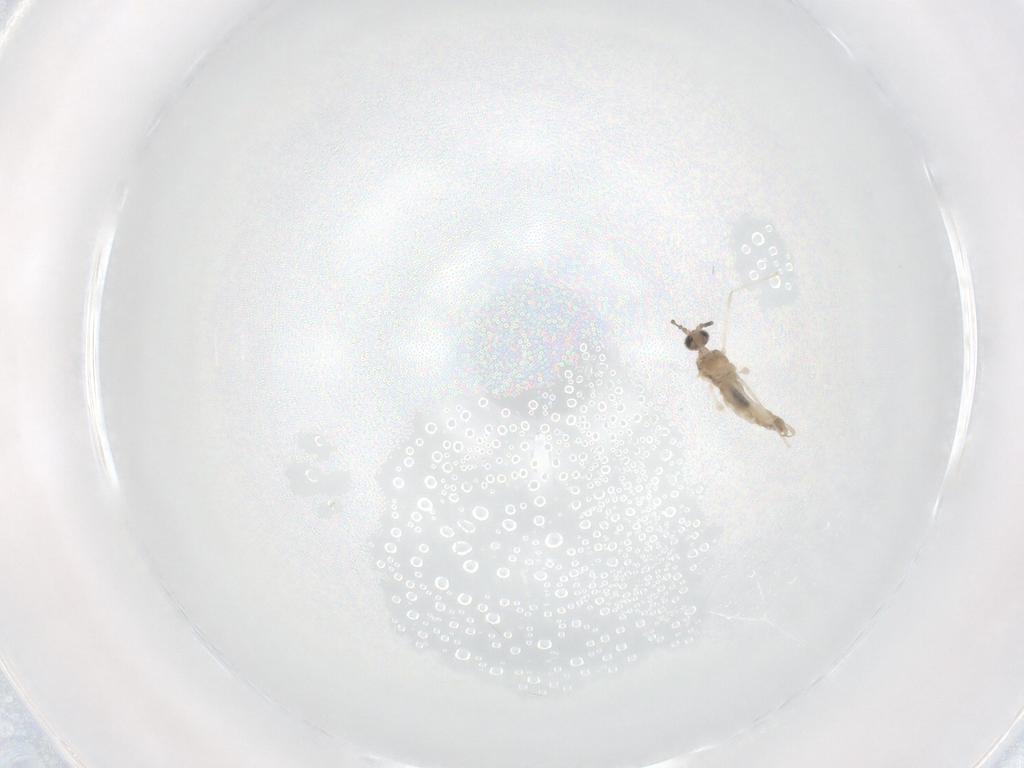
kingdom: Animalia
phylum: Arthropoda
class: Insecta
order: Diptera
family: Cecidomyiidae
